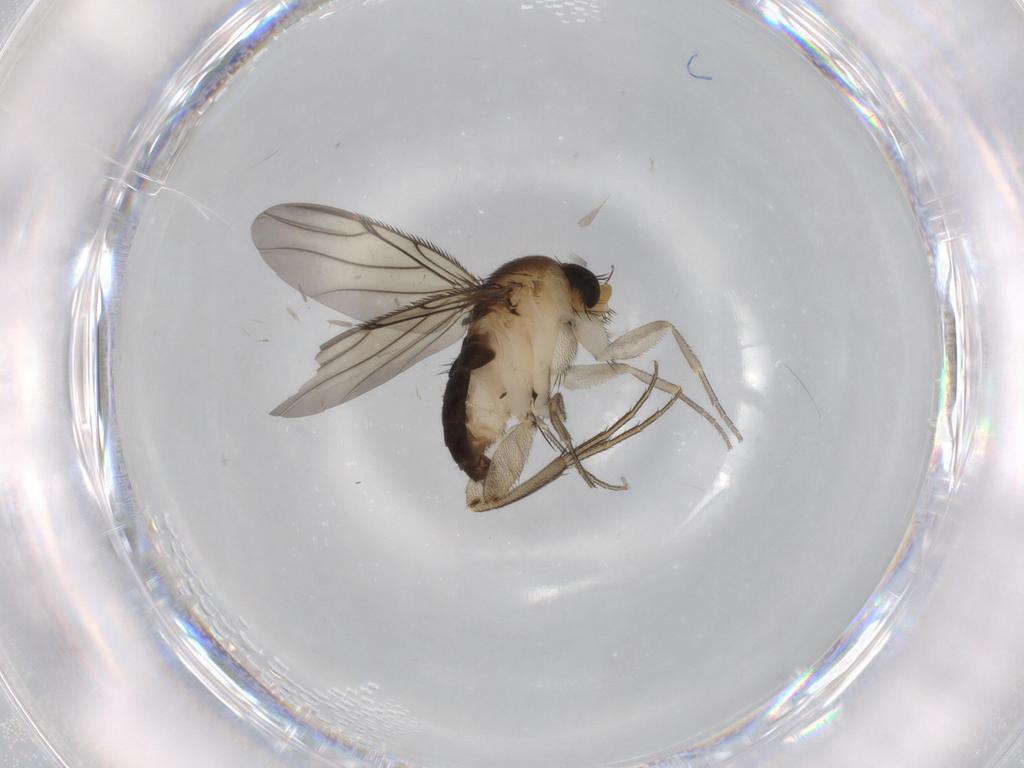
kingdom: Animalia
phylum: Arthropoda
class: Insecta
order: Diptera
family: Phoridae
